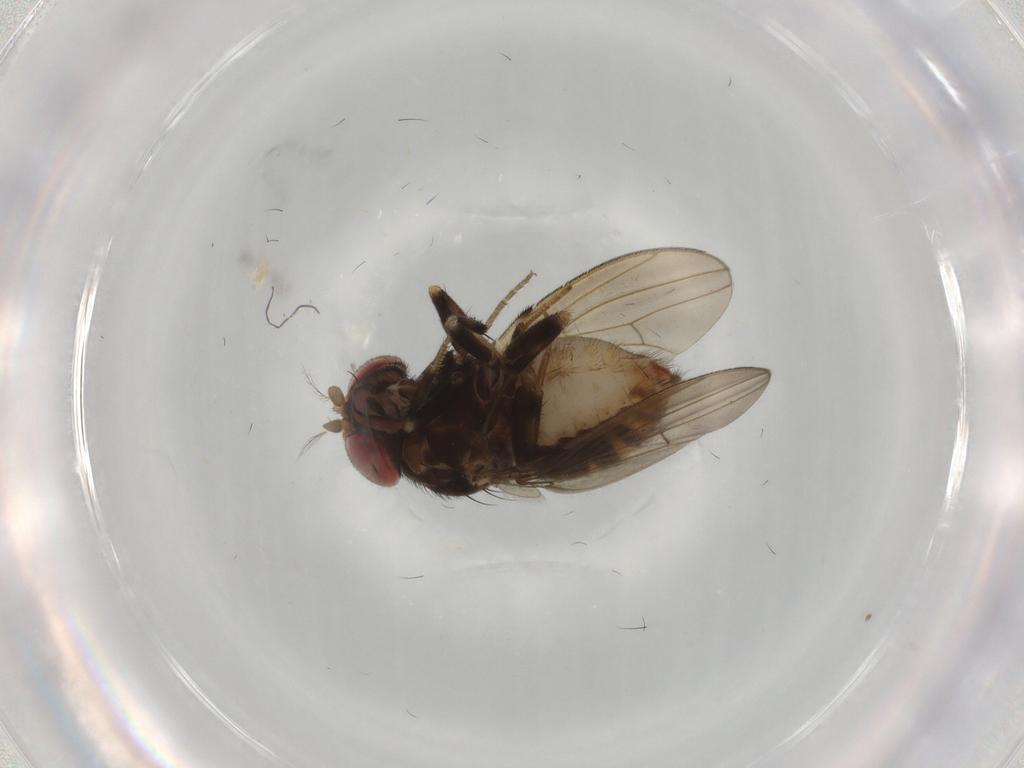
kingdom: Animalia
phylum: Arthropoda
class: Insecta
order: Diptera
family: Drosophilidae
